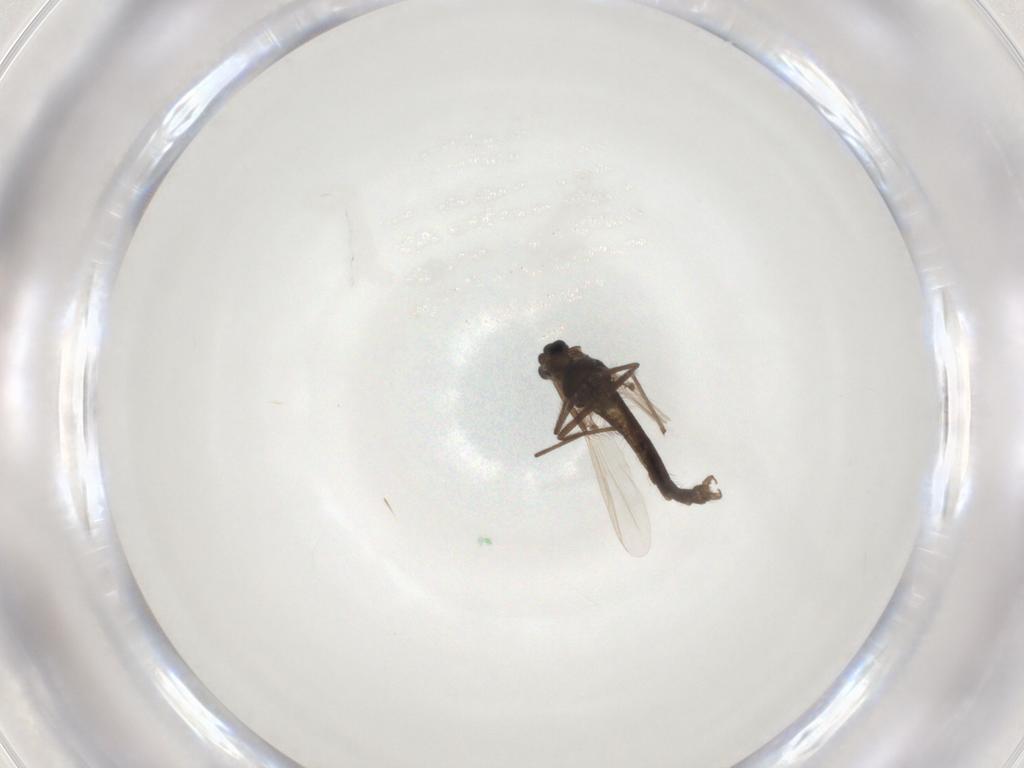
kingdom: Animalia
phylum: Arthropoda
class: Insecta
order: Diptera
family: Chironomidae
